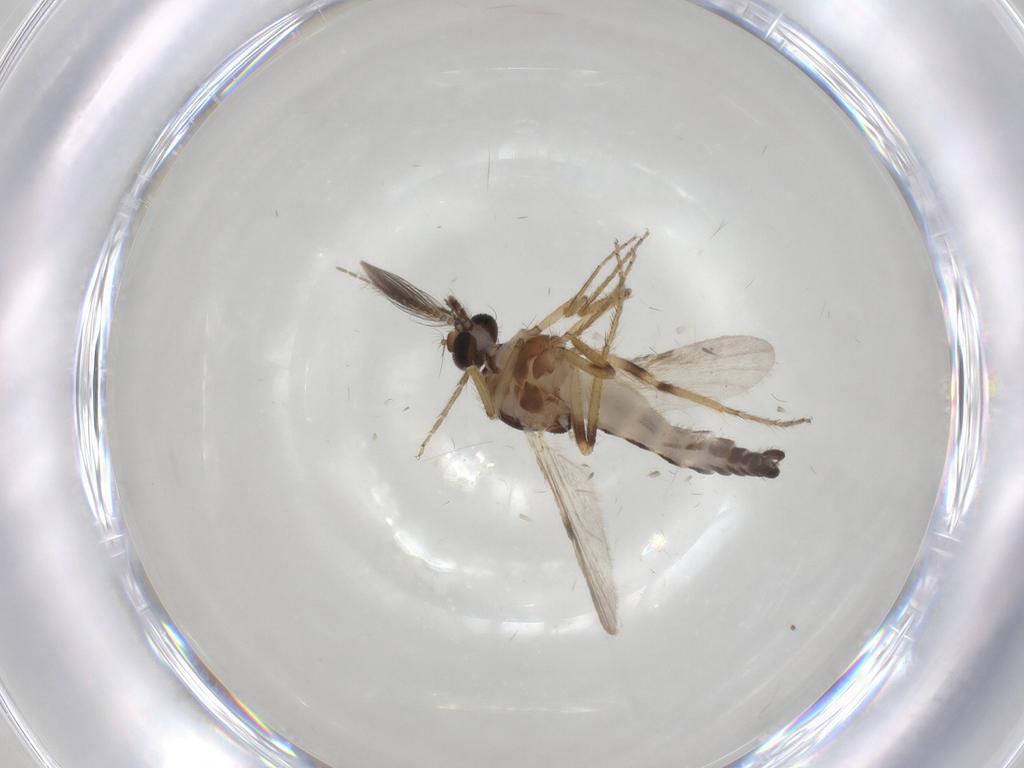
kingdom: Animalia
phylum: Arthropoda
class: Insecta
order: Diptera
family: Ceratopogonidae
